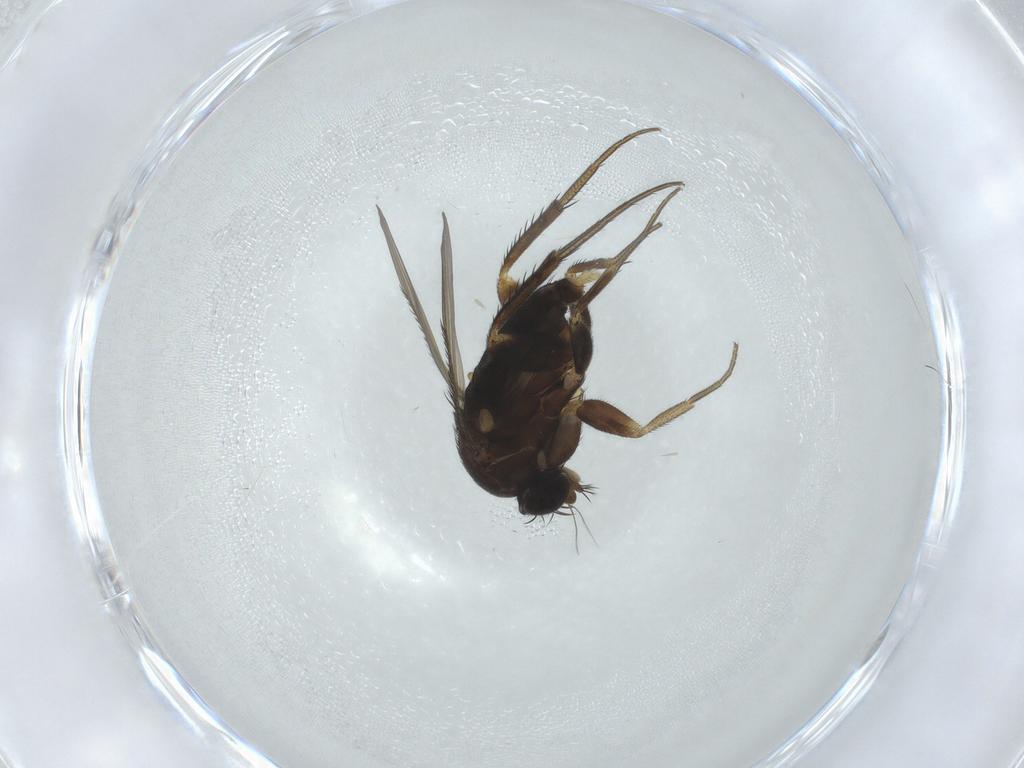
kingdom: Animalia
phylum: Arthropoda
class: Insecta
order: Diptera
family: Phoridae
